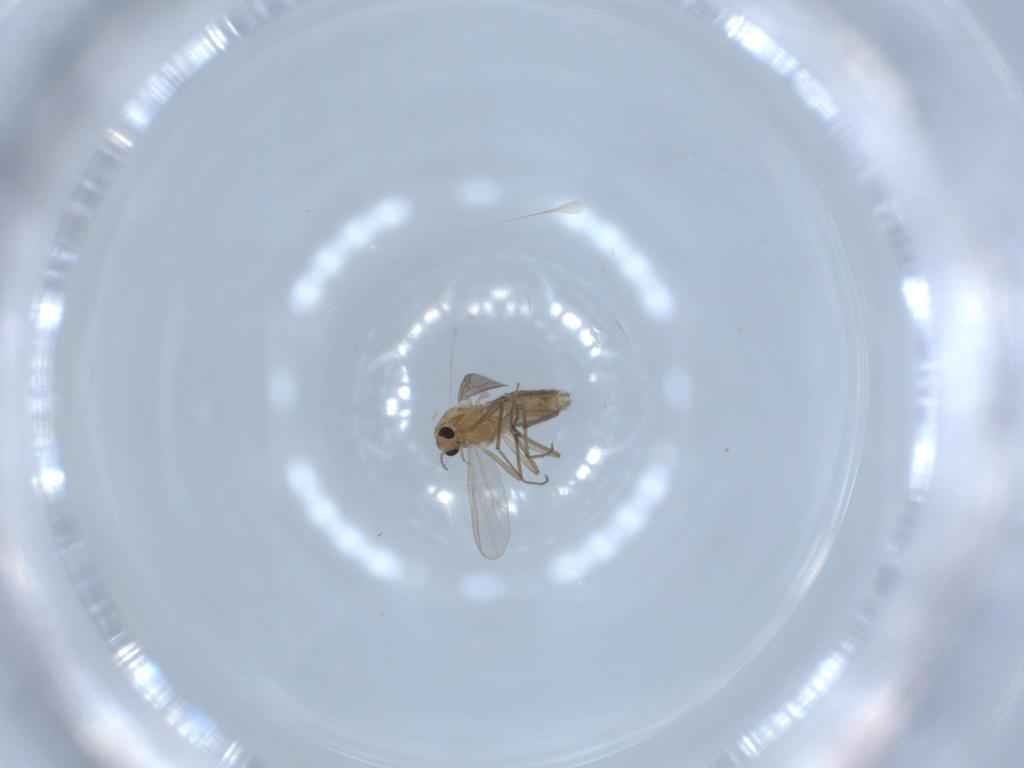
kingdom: Animalia
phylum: Arthropoda
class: Insecta
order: Diptera
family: Chironomidae
